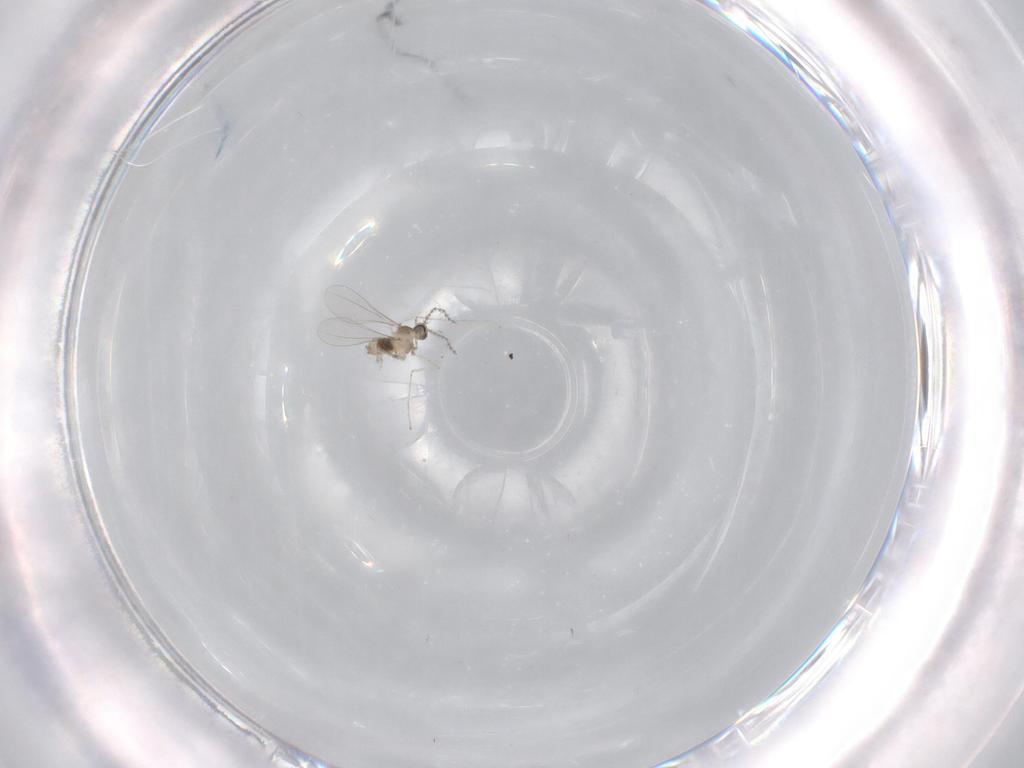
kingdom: Animalia
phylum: Arthropoda
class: Insecta
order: Diptera
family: Cecidomyiidae
